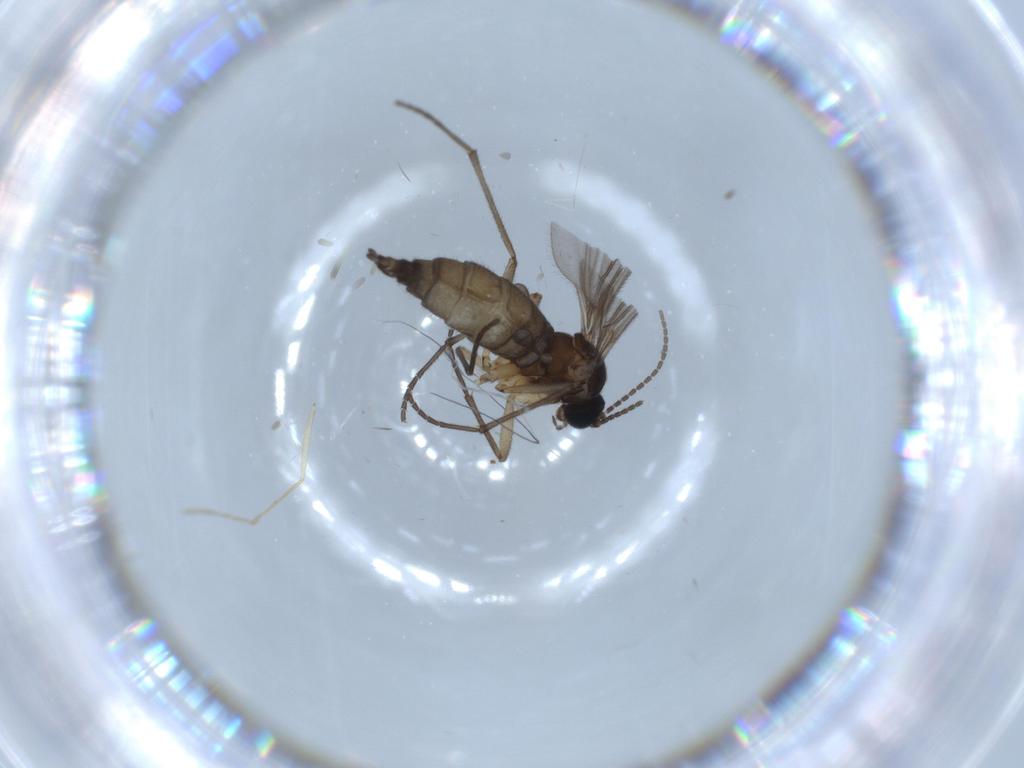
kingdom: Animalia
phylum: Arthropoda
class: Insecta
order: Diptera
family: Sciaridae
